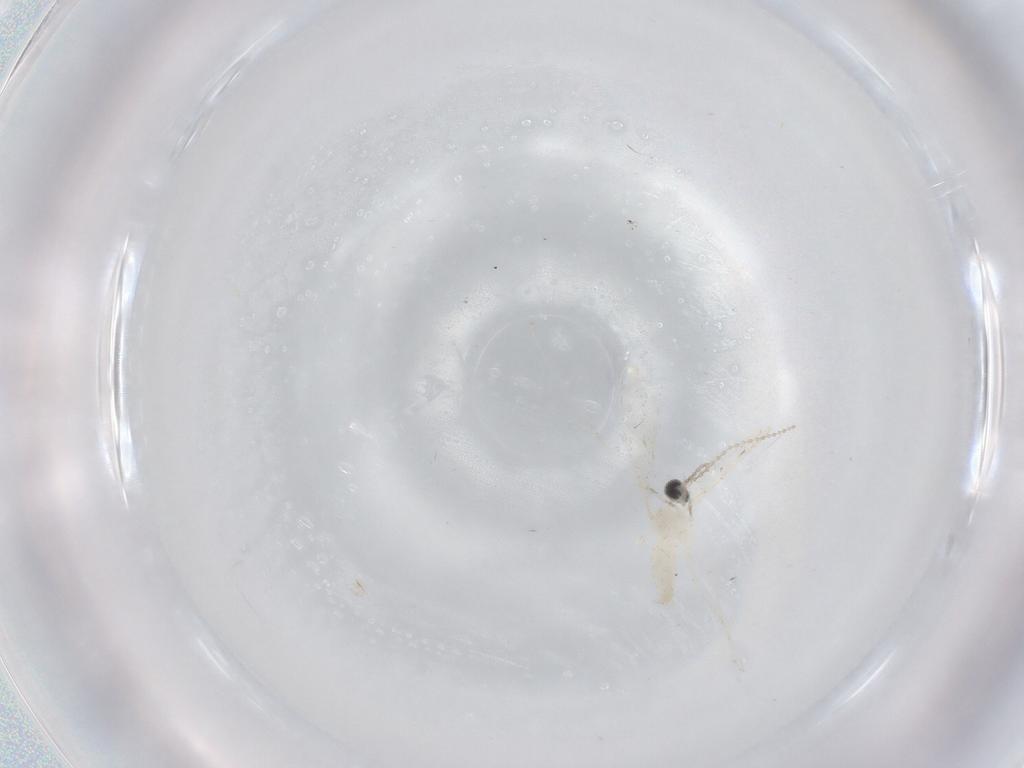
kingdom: Animalia
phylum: Arthropoda
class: Insecta
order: Diptera
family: Cecidomyiidae
